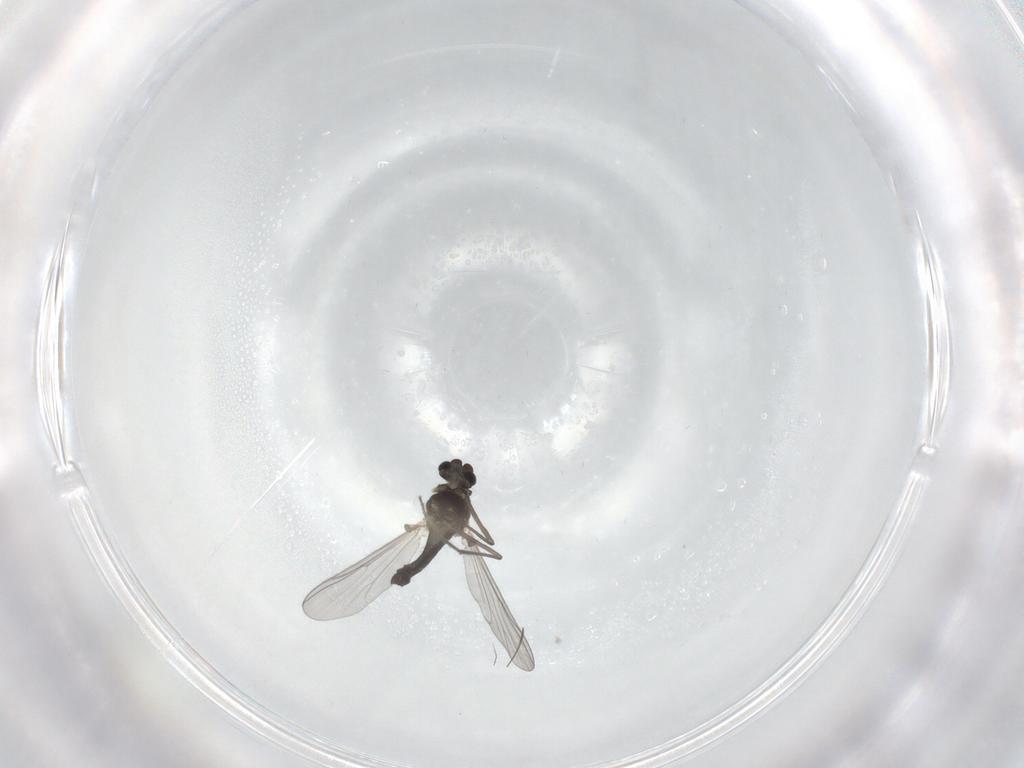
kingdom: Animalia
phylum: Arthropoda
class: Insecta
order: Diptera
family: Chironomidae
